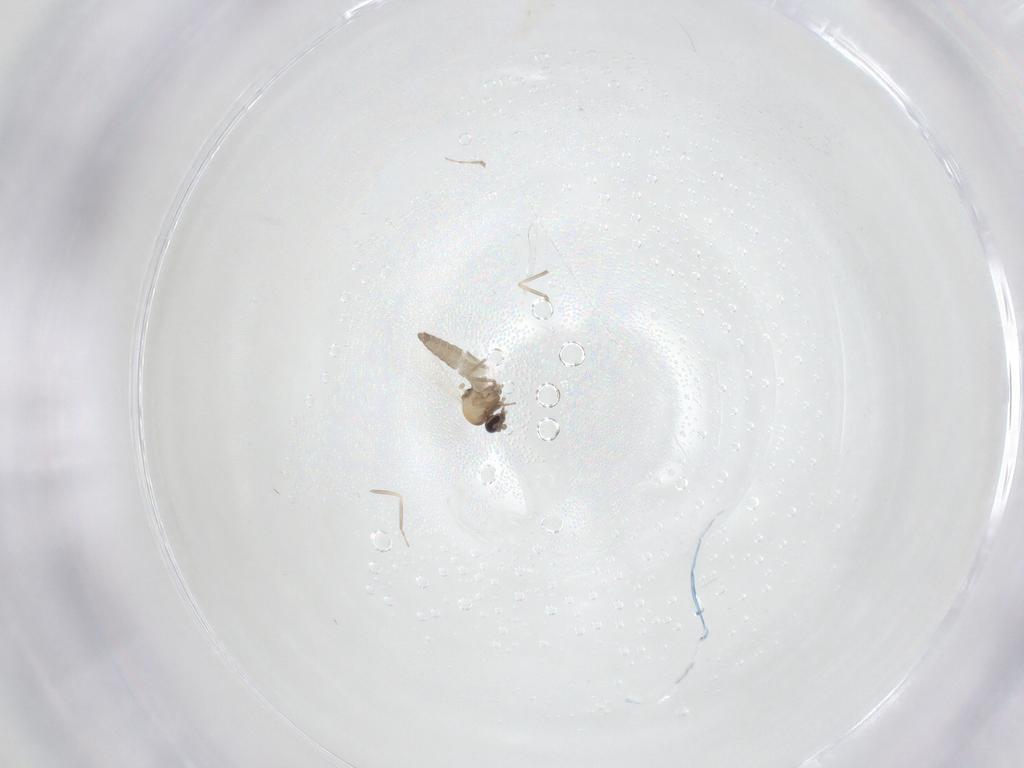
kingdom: Animalia
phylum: Arthropoda
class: Insecta
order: Diptera
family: Ceratopogonidae
